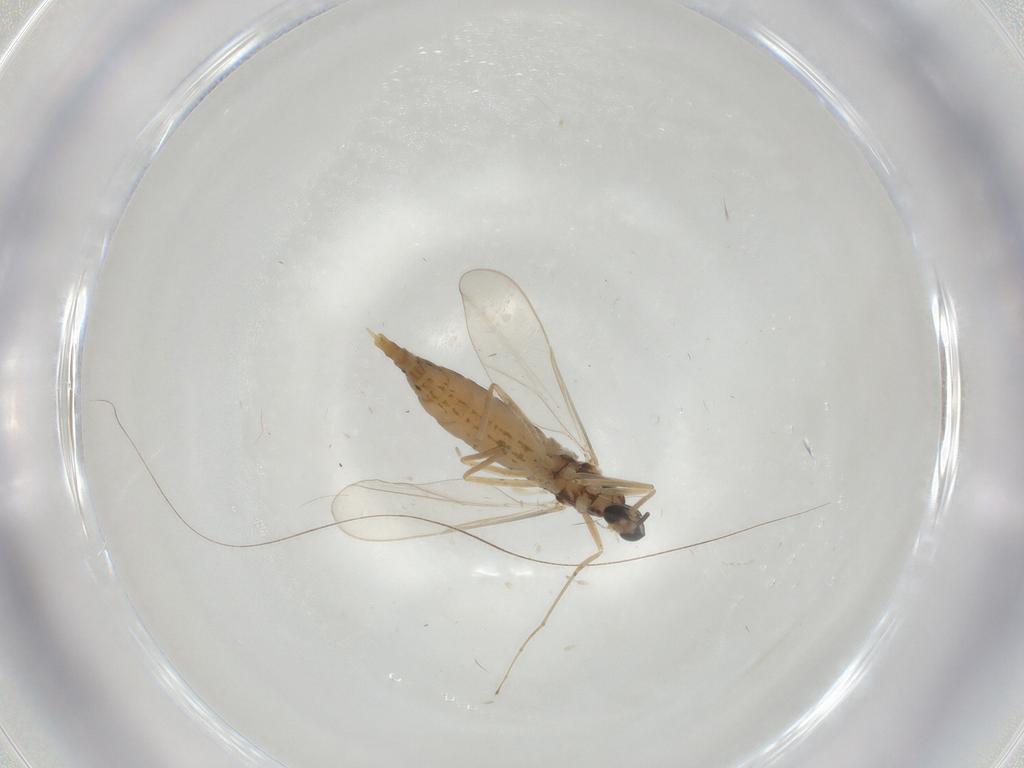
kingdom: Animalia
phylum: Arthropoda
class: Insecta
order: Diptera
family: Cecidomyiidae
